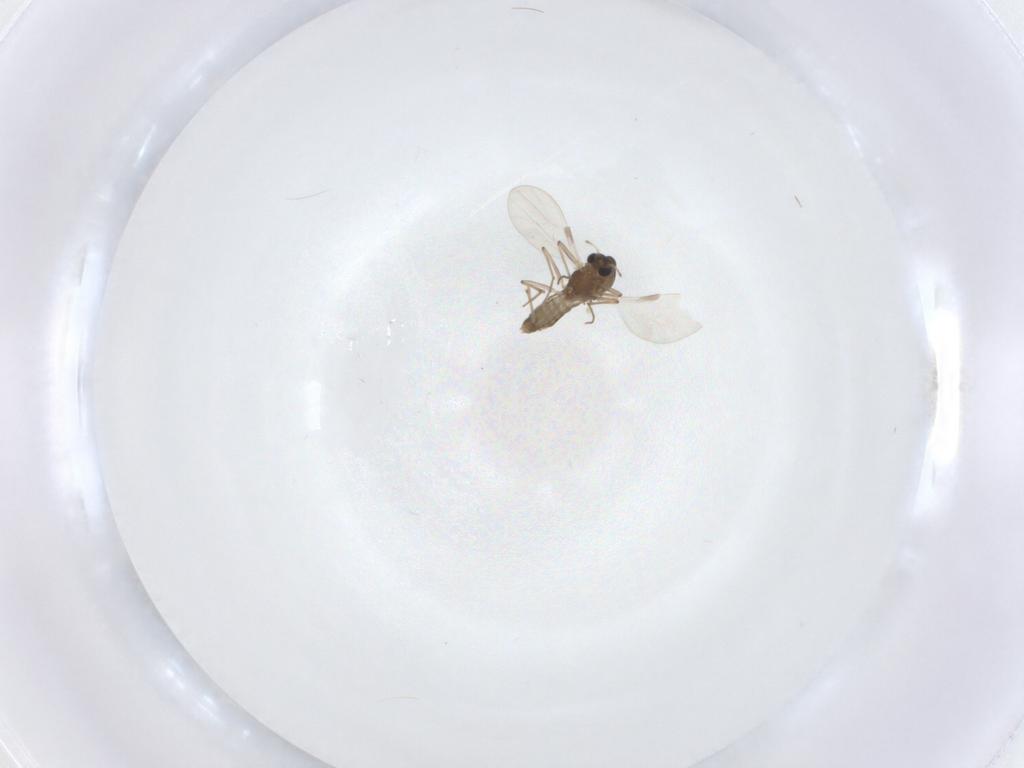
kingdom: Animalia
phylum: Arthropoda
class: Insecta
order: Diptera
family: Chironomidae
